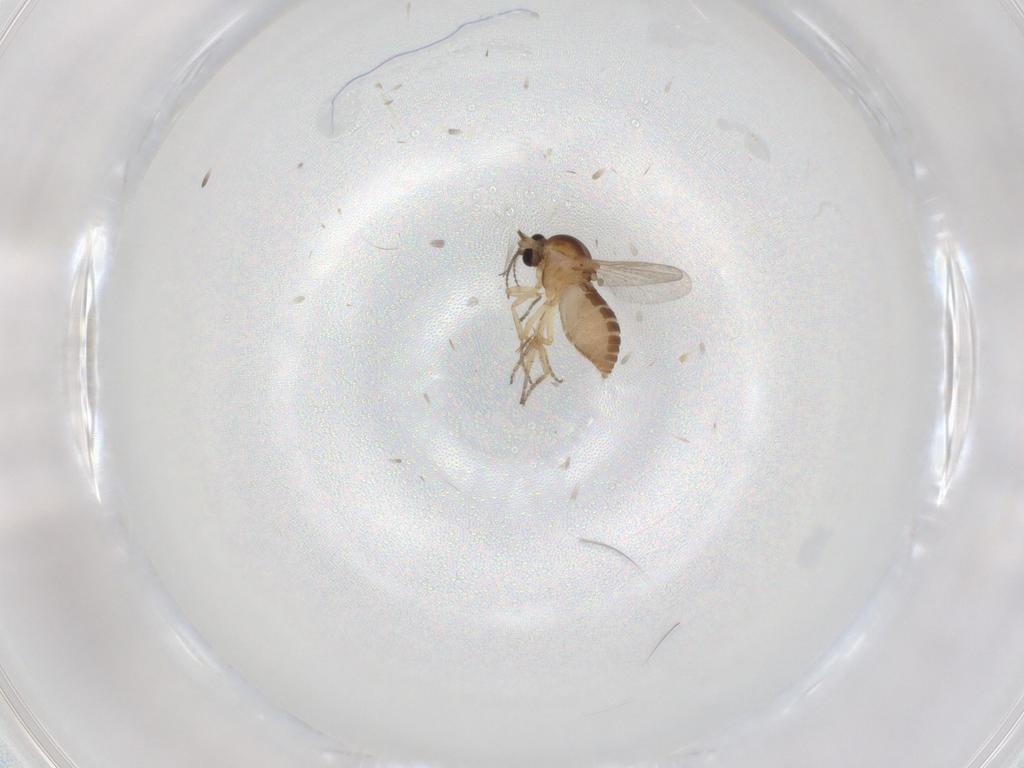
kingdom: Animalia
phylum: Arthropoda
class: Insecta
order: Diptera
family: Ceratopogonidae
